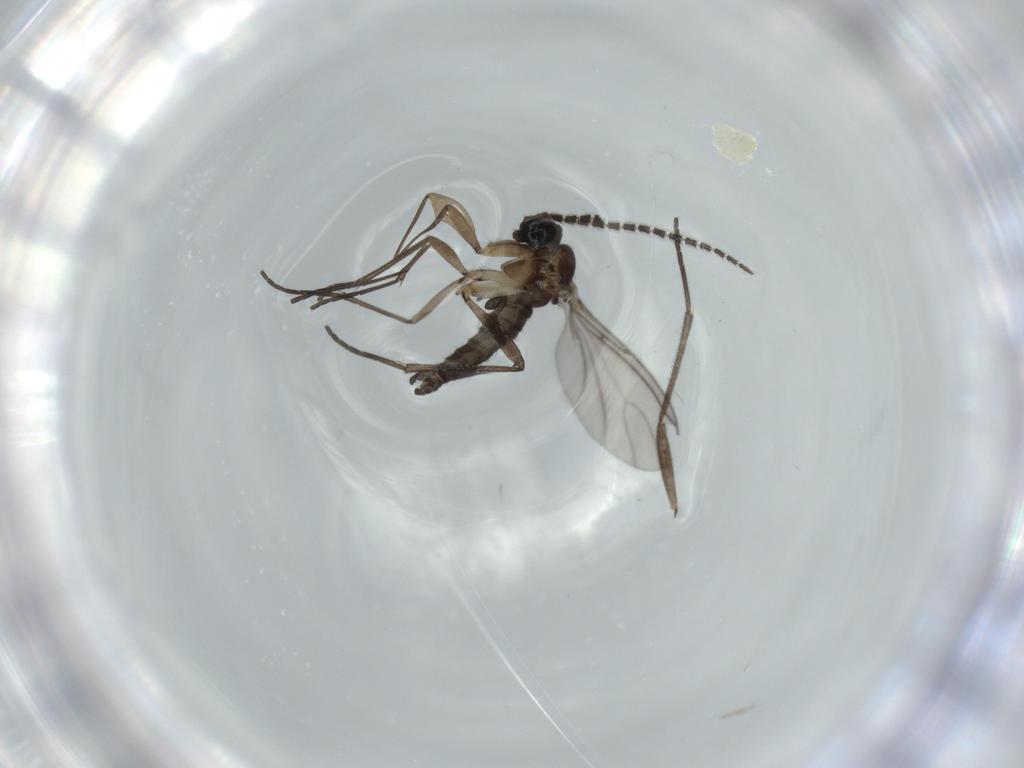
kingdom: Animalia
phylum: Arthropoda
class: Insecta
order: Diptera
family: Sciaridae
